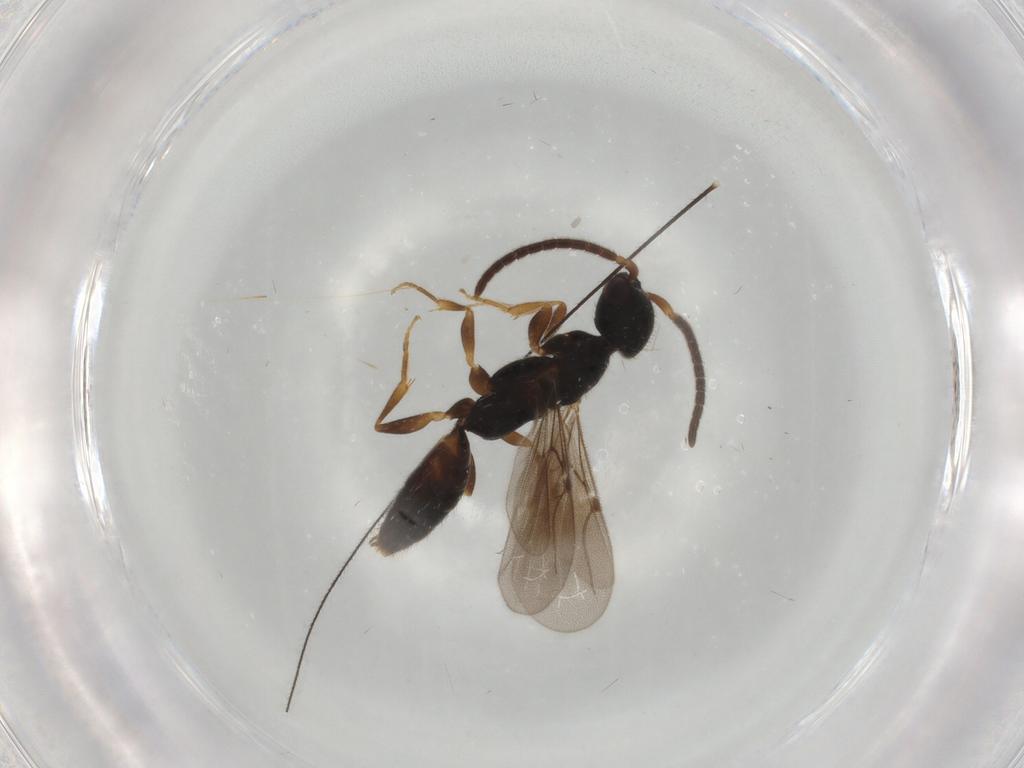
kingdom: Animalia
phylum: Arthropoda
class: Insecta
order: Hymenoptera
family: Bethylidae
